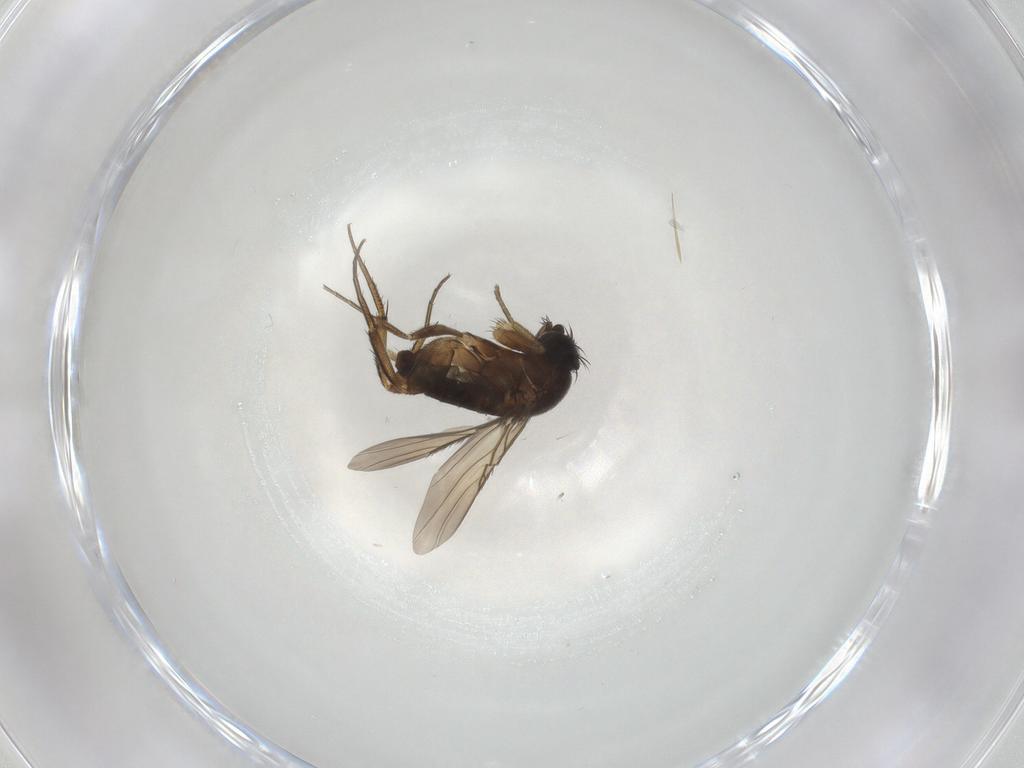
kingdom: Animalia
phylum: Arthropoda
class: Insecta
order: Diptera
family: Phoridae
